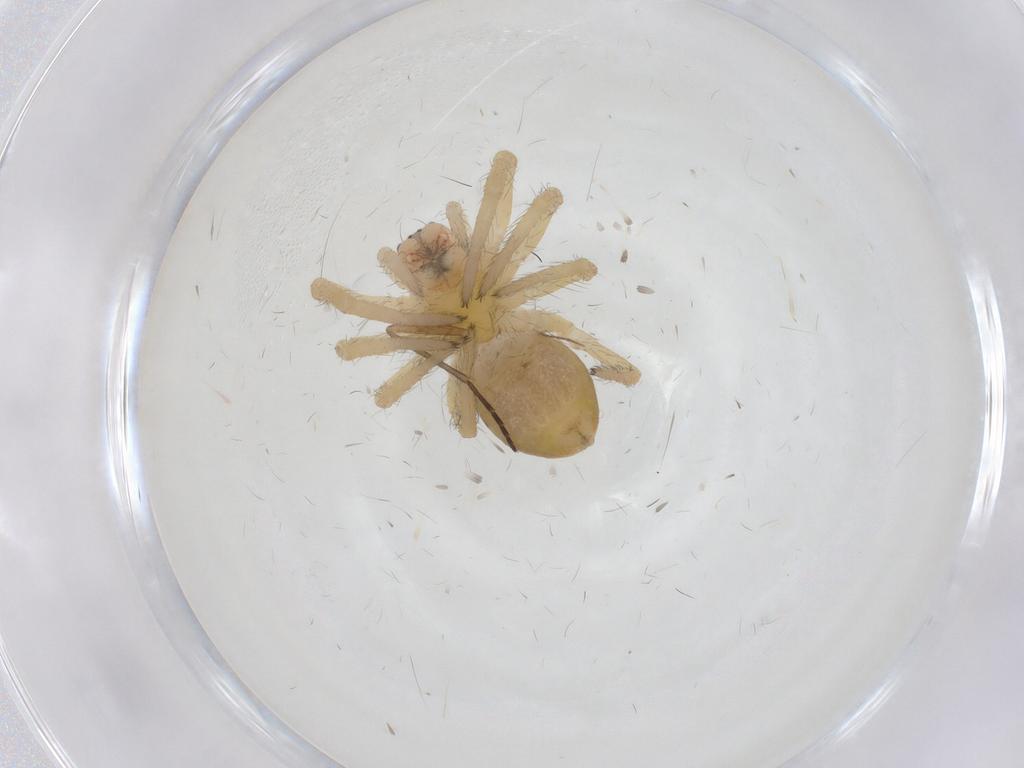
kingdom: Animalia
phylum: Arthropoda
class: Arachnida
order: Araneae
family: Mimetidae
